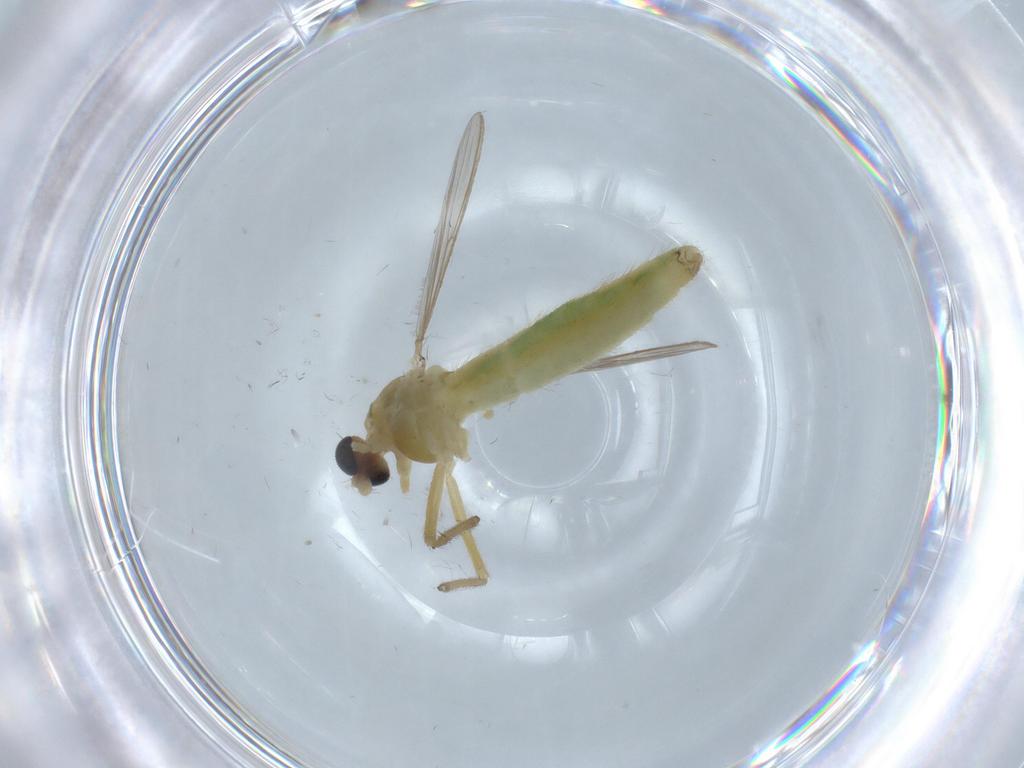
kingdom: Animalia
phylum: Arthropoda
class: Insecta
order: Diptera
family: Chironomidae
